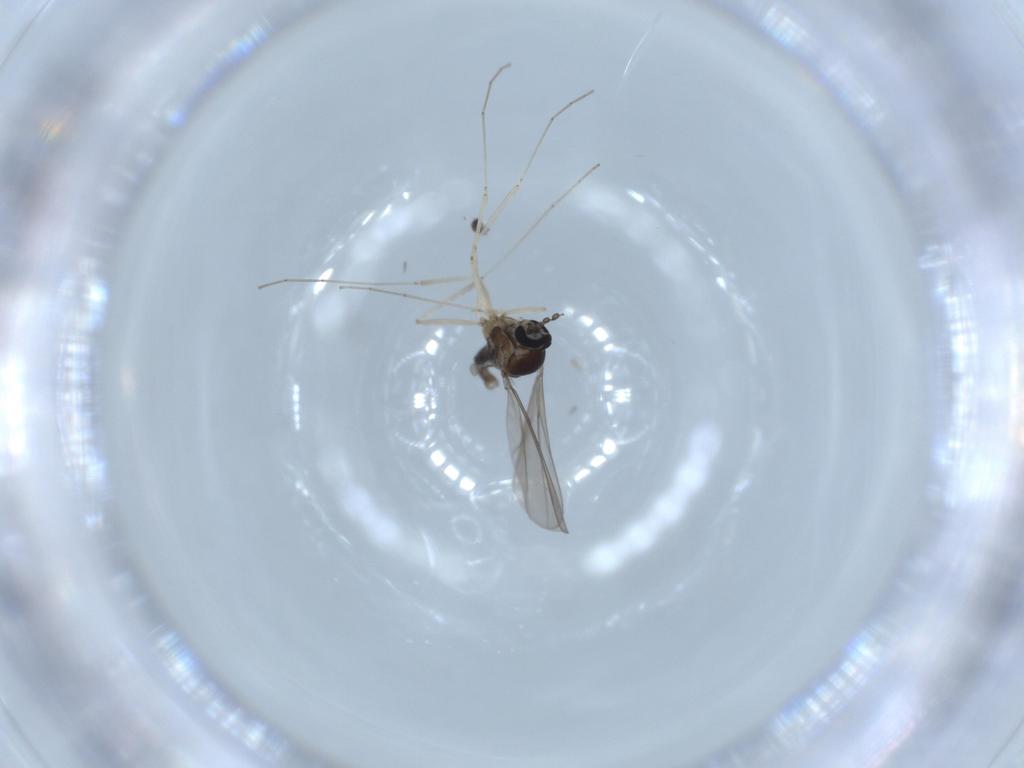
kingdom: Animalia
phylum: Arthropoda
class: Insecta
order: Diptera
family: Cecidomyiidae
